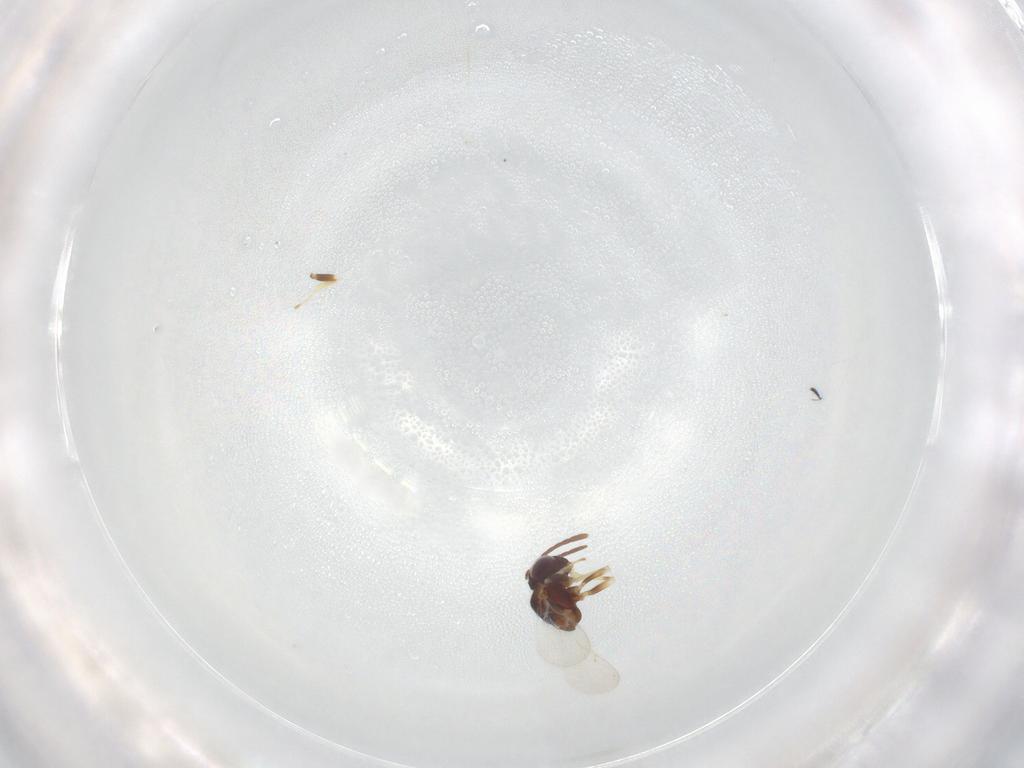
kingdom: Animalia
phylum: Arthropoda
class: Insecta
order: Hymenoptera
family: Encyrtidae
